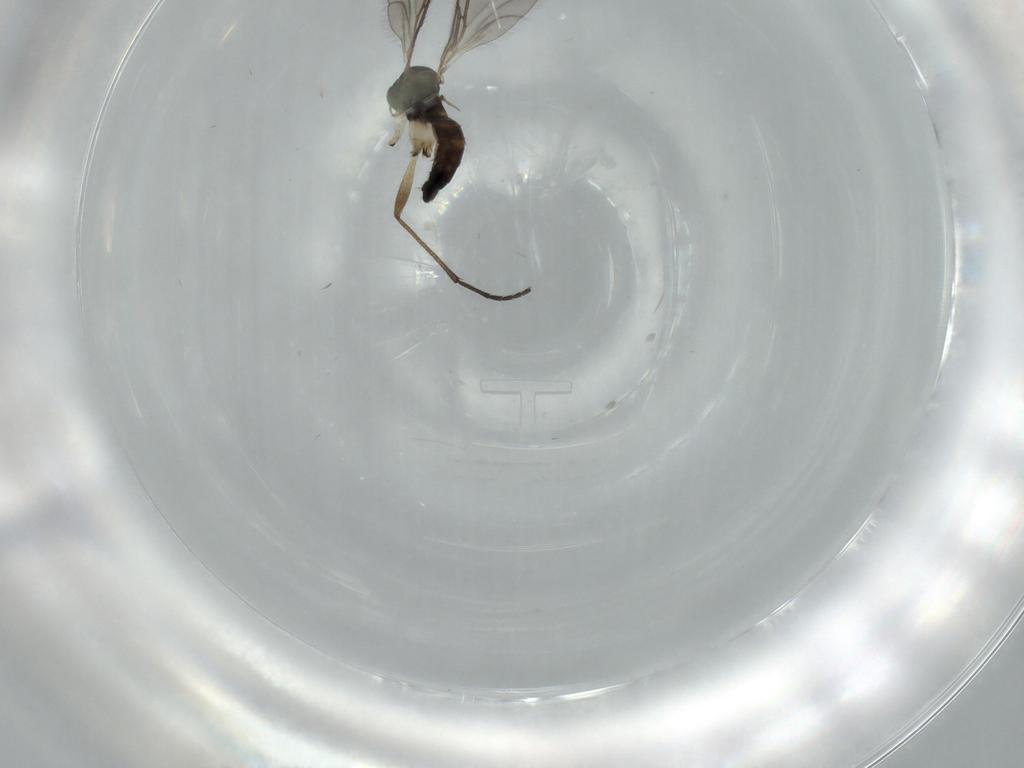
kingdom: Animalia
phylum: Arthropoda
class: Insecta
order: Diptera
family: Sciaridae
